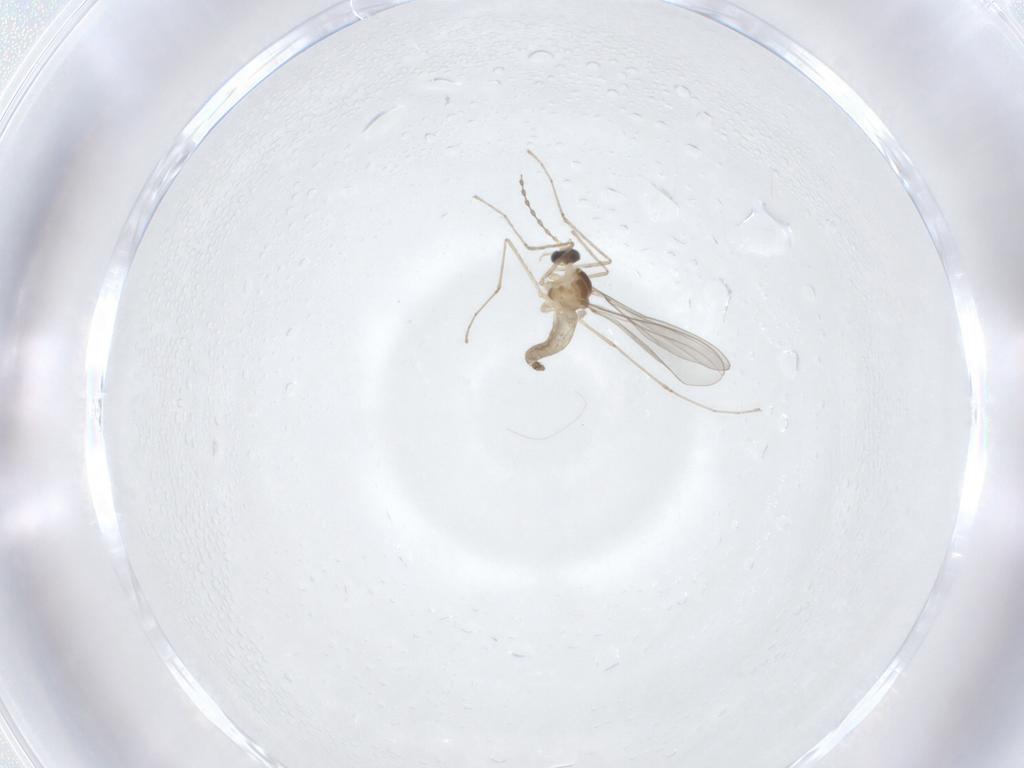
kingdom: Animalia
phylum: Arthropoda
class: Insecta
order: Diptera
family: Cecidomyiidae
